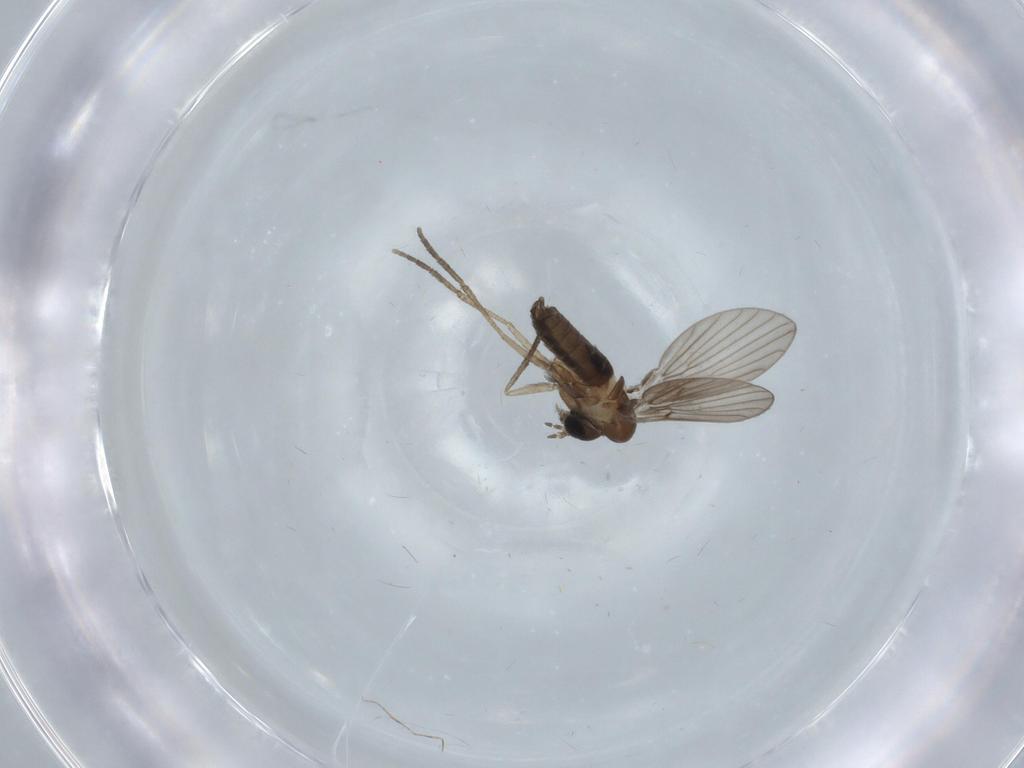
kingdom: Animalia
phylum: Arthropoda
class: Insecta
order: Diptera
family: Psychodidae
